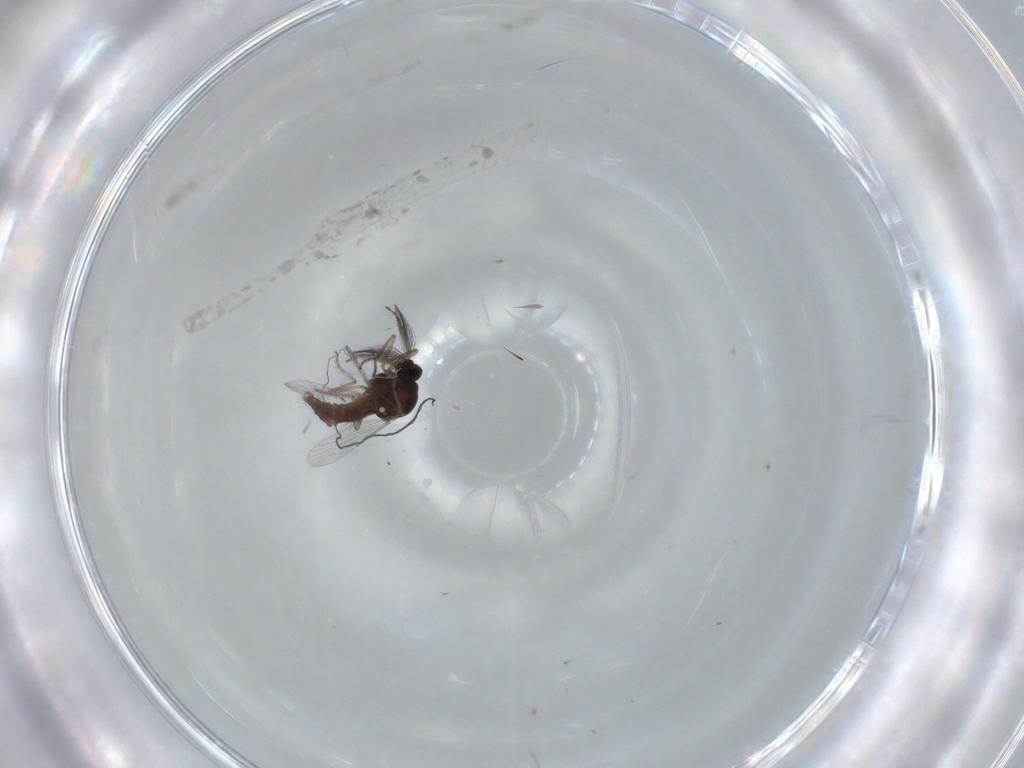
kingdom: Animalia
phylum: Arthropoda
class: Insecta
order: Diptera
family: Ceratopogonidae
